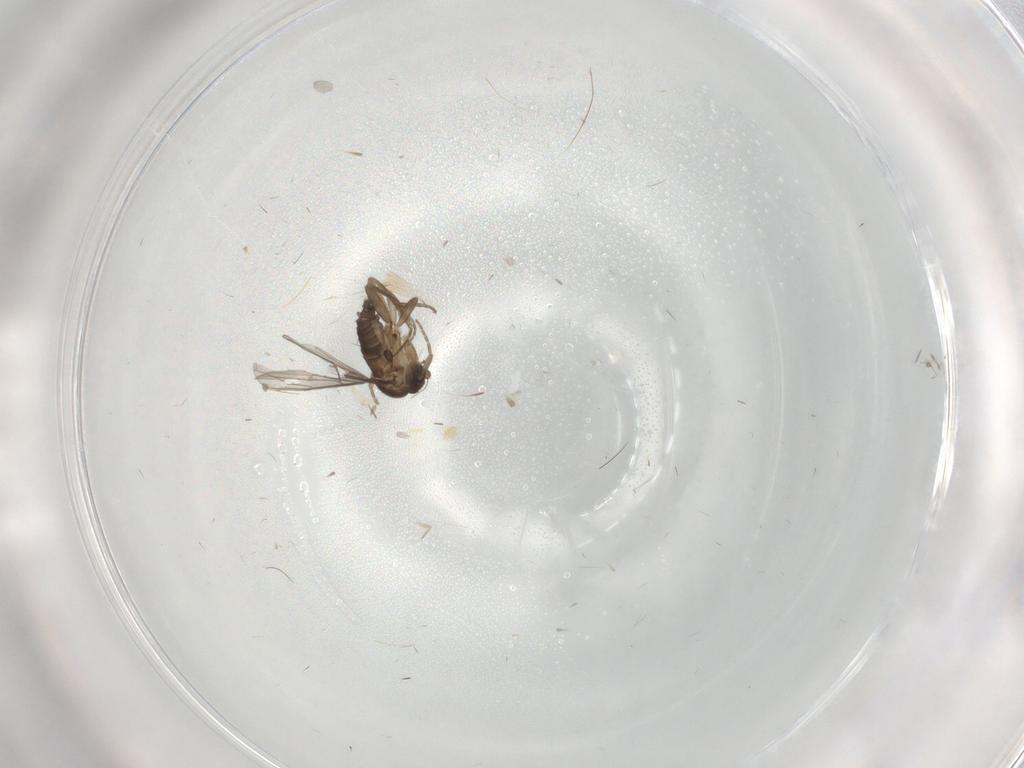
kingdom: Animalia
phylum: Arthropoda
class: Insecta
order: Diptera
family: Phoridae
